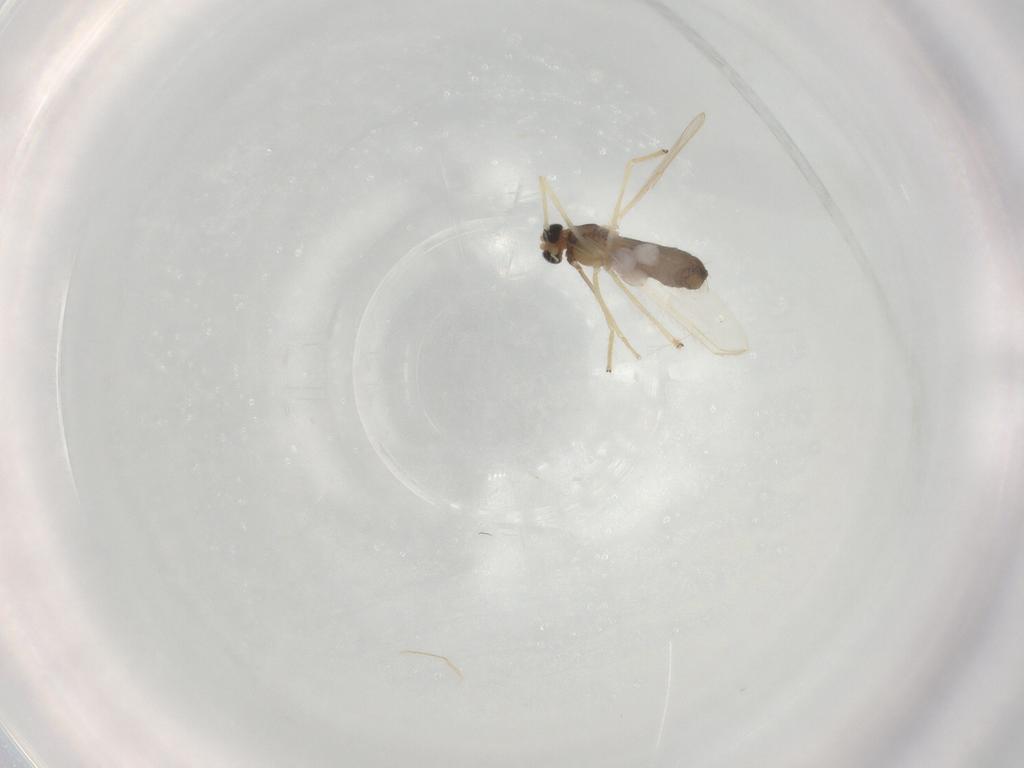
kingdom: Animalia
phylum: Arthropoda
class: Insecta
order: Diptera
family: Chironomidae
